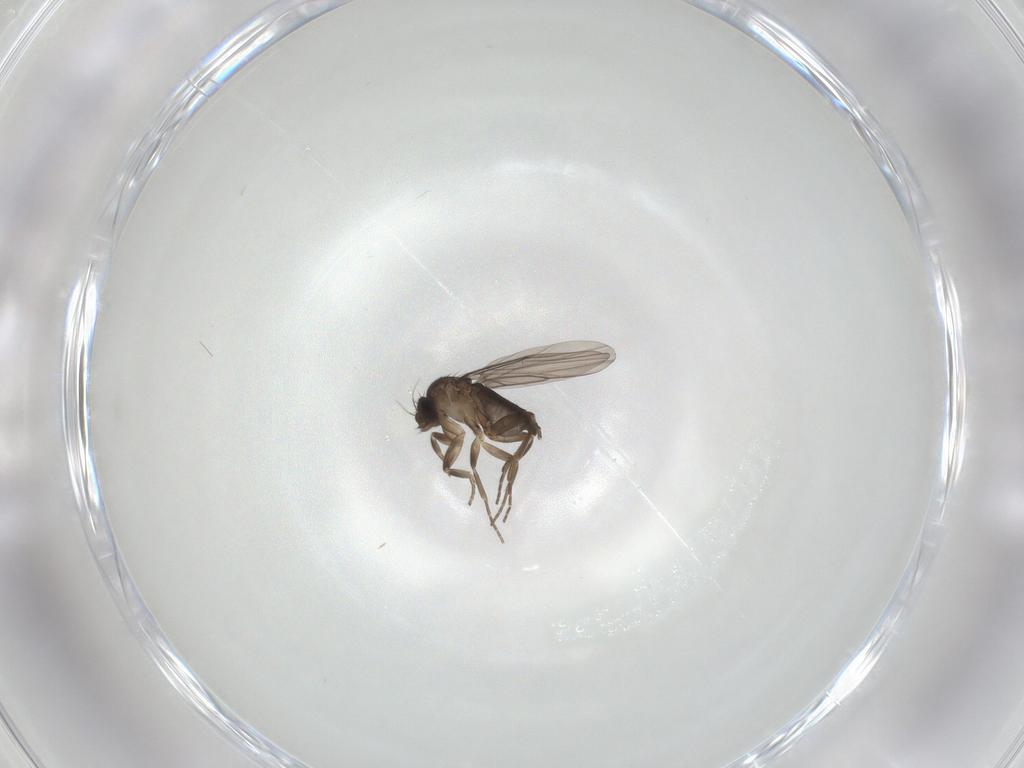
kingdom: Animalia
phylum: Arthropoda
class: Insecta
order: Diptera
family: Phoridae
